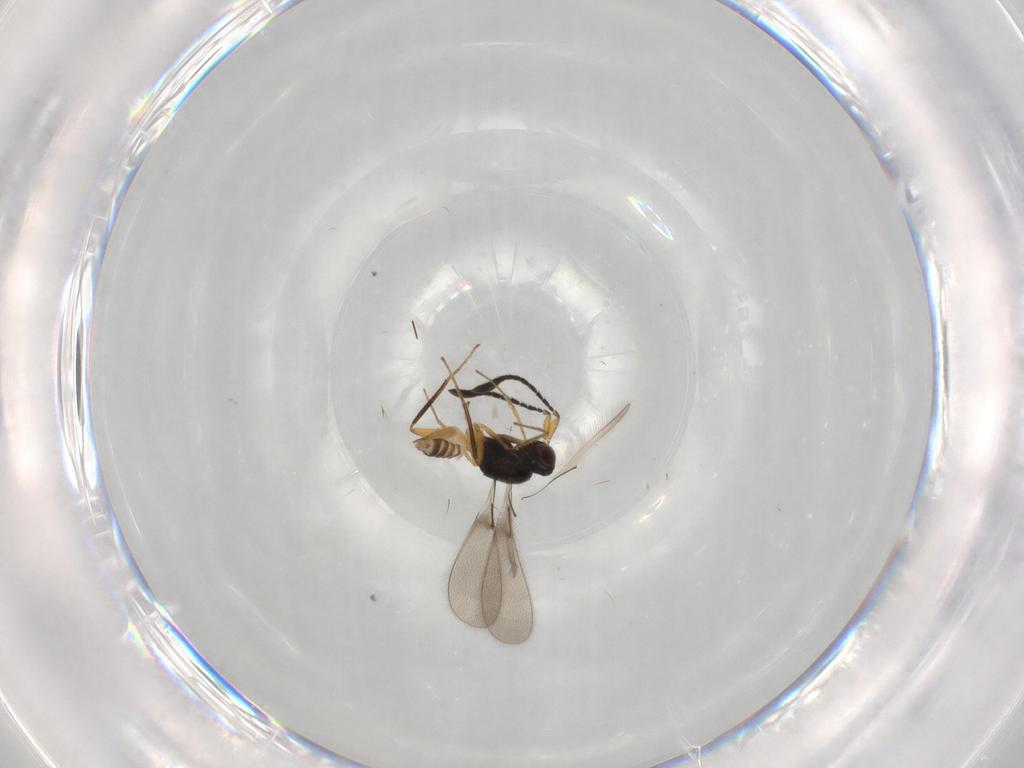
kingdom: Animalia
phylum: Arthropoda
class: Insecta
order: Hymenoptera
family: Mymaridae
